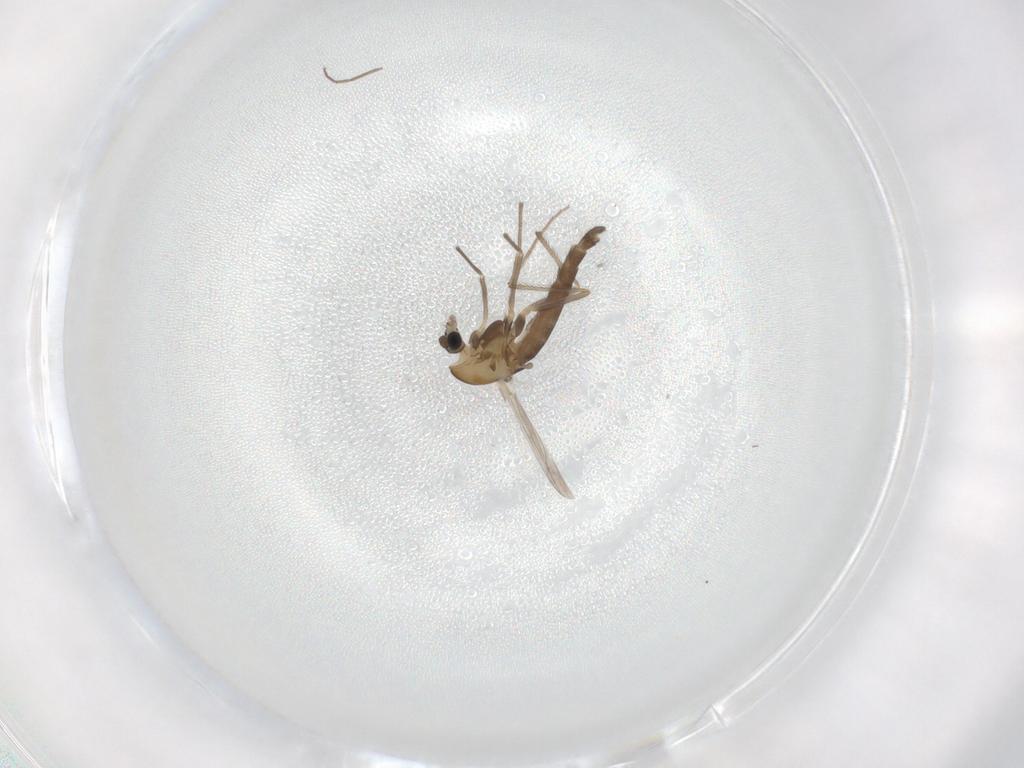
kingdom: Animalia
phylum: Arthropoda
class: Insecta
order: Diptera
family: Chironomidae
